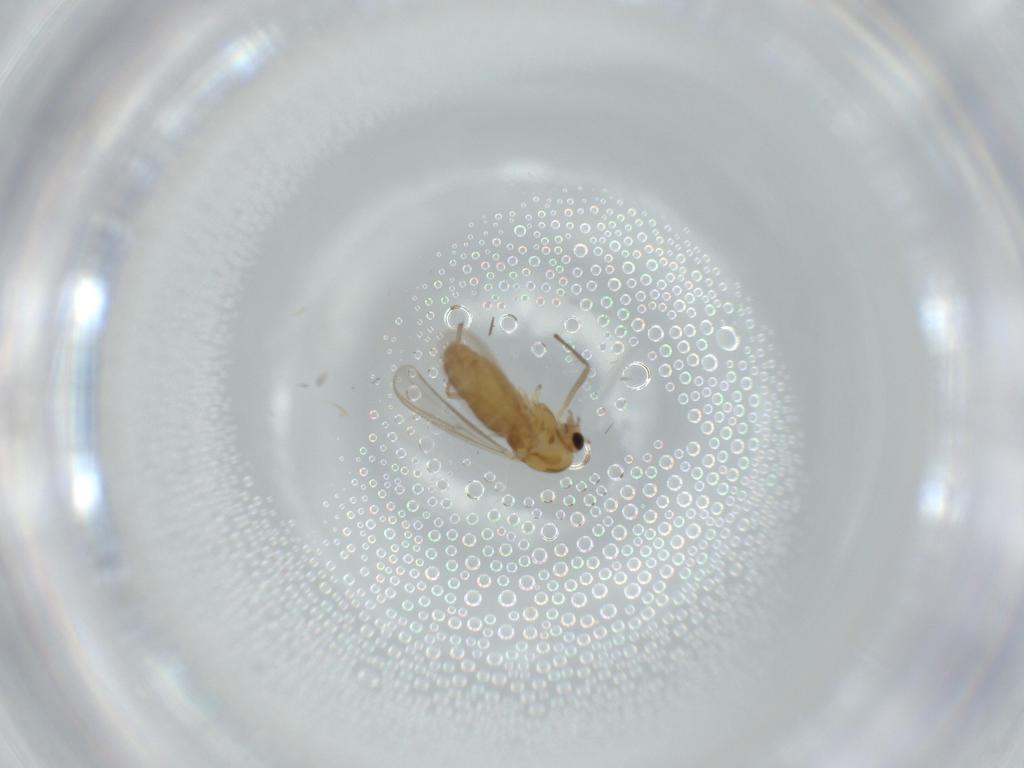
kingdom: Animalia
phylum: Arthropoda
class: Insecta
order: Diptera
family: Chironomidae
